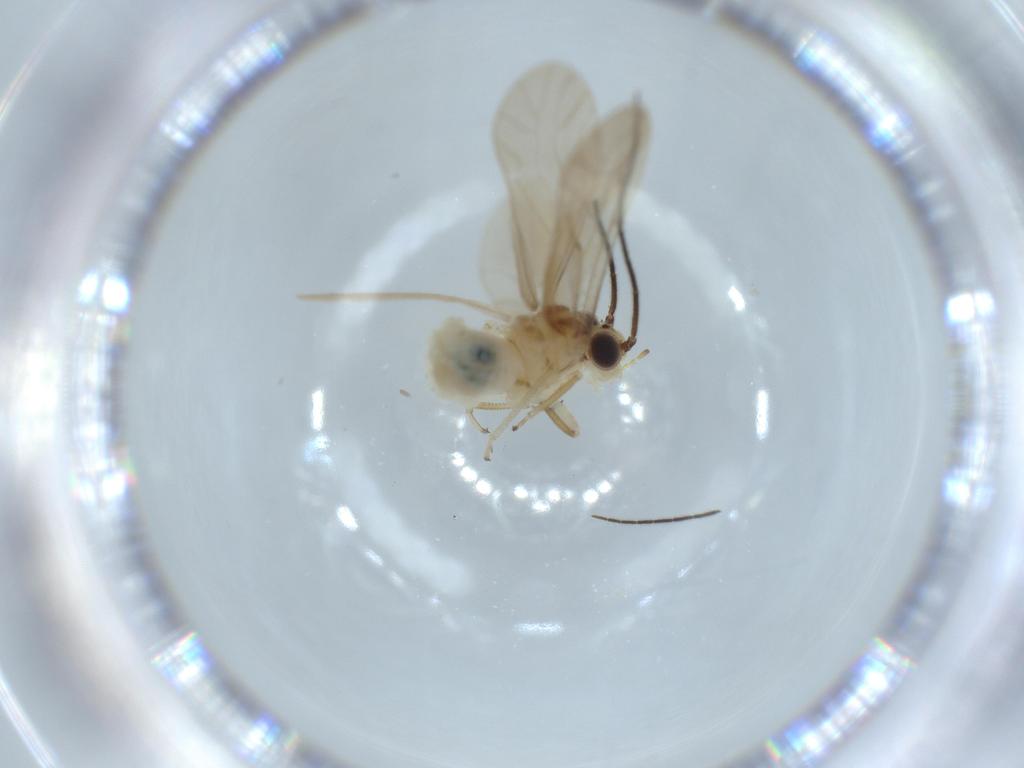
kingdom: Animalia
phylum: Arthropoda
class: Insecta
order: Psocodea
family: Caeciliusidae
